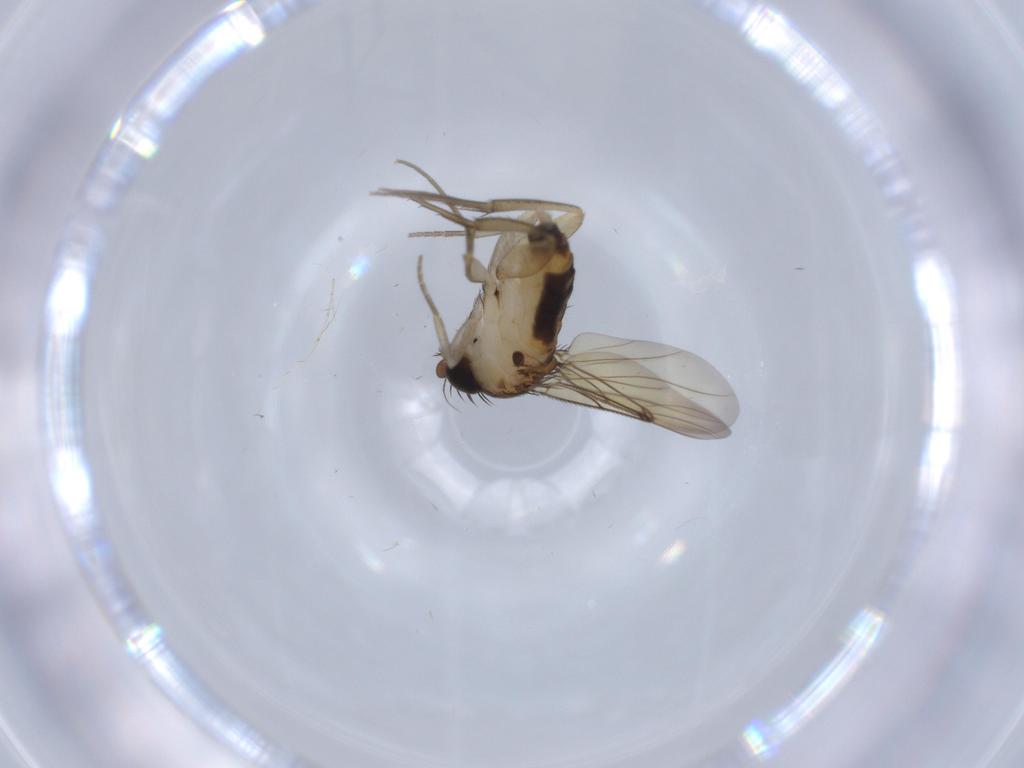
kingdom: Animalia
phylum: Arthropoda
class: Insecta
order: Diptera
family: Cecidomyiidae
